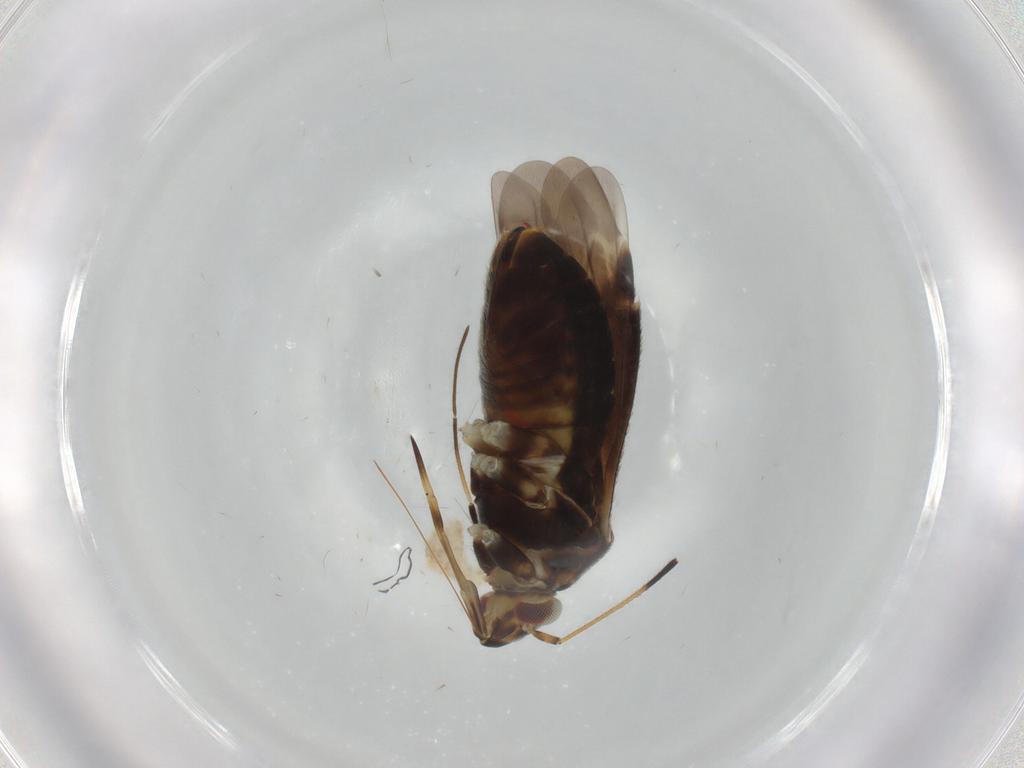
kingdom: Animalia
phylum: Arthropoda
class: Insecta
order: Hemiptera
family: Miridae
